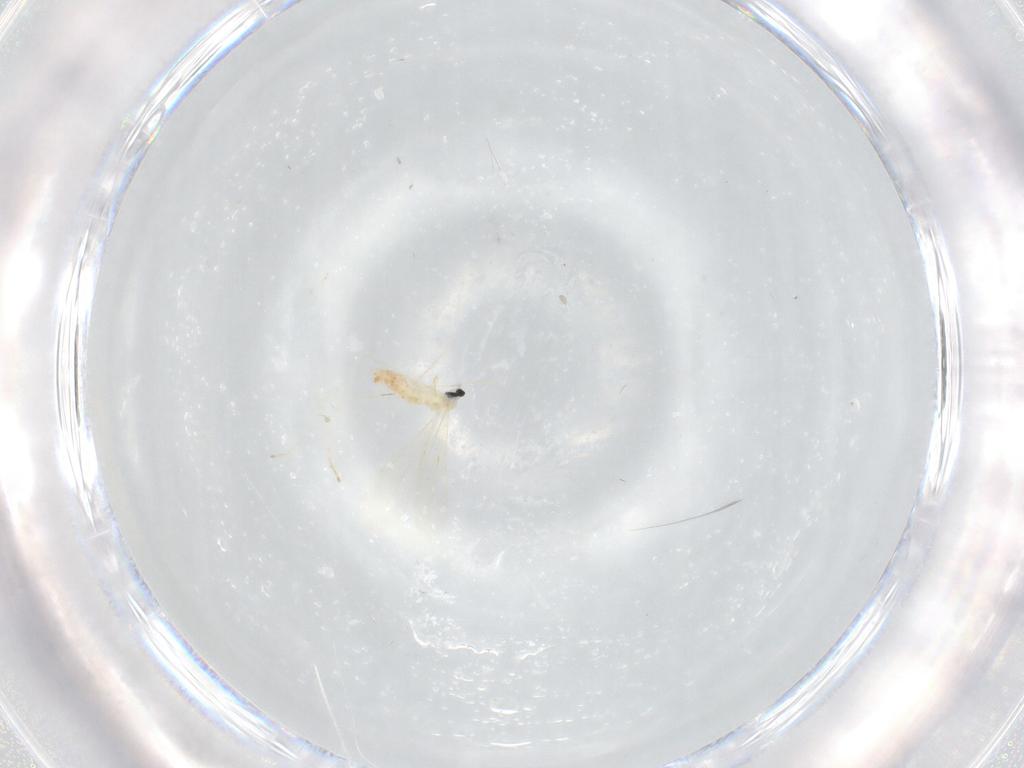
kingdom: Animalia
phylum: Arthropoda
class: Insecta
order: Diptera
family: Cecidomyiidae
